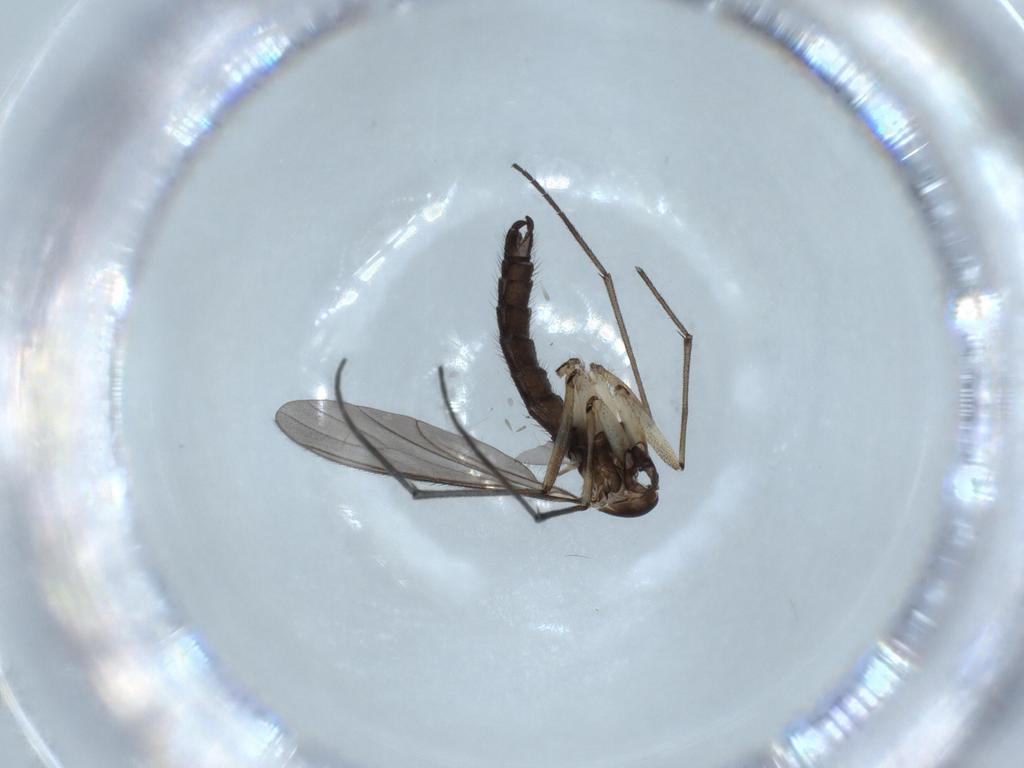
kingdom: Animalia
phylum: Arthropoda
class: Insecta
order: Diptera
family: Sciaridae
